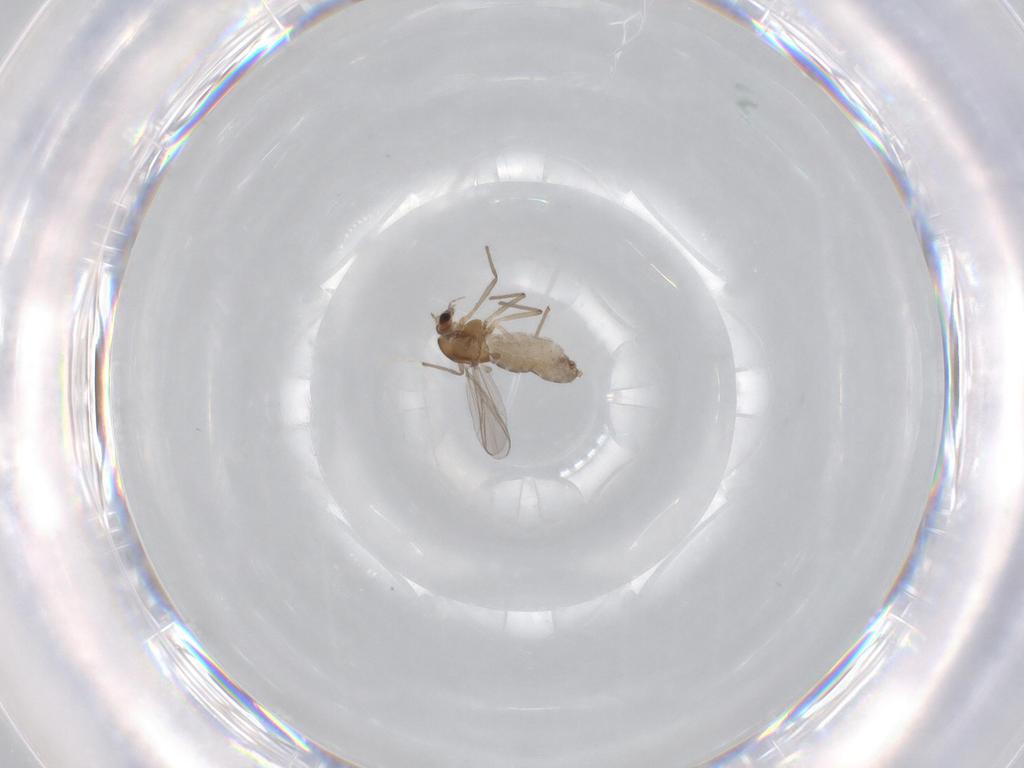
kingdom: Animalia
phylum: Arthropoda
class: Insecta
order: Diptera
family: Chironomidae
